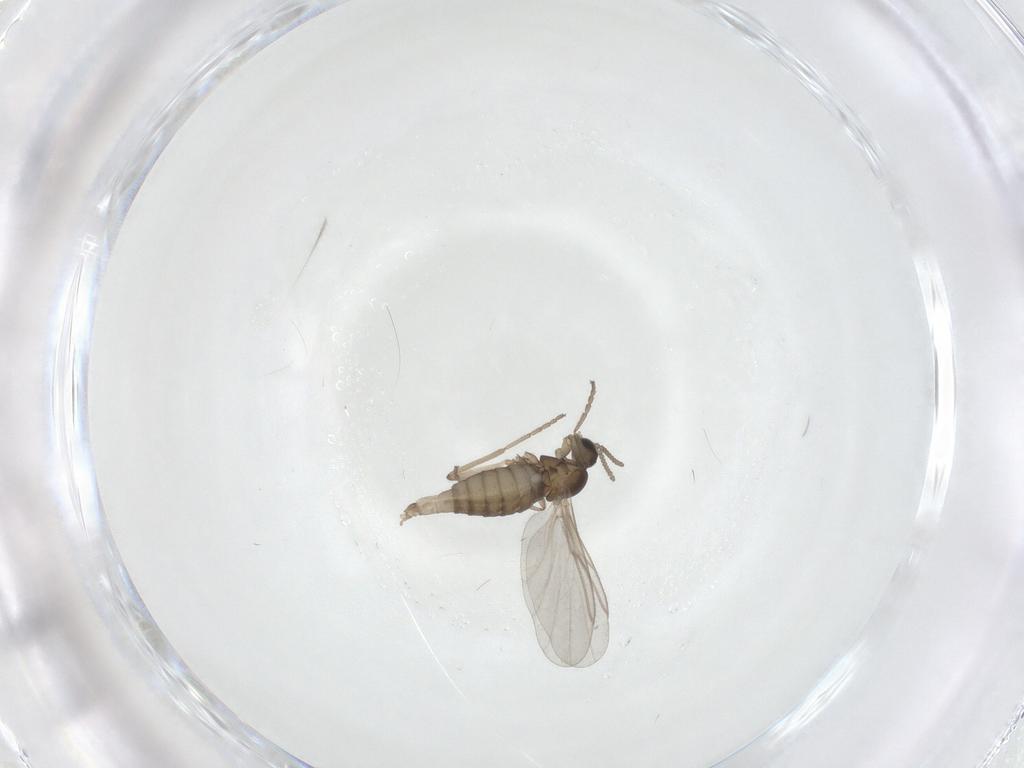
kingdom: Animalia
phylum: Arthropoda
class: Insecta
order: Diptera
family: Cecidomyiidae
